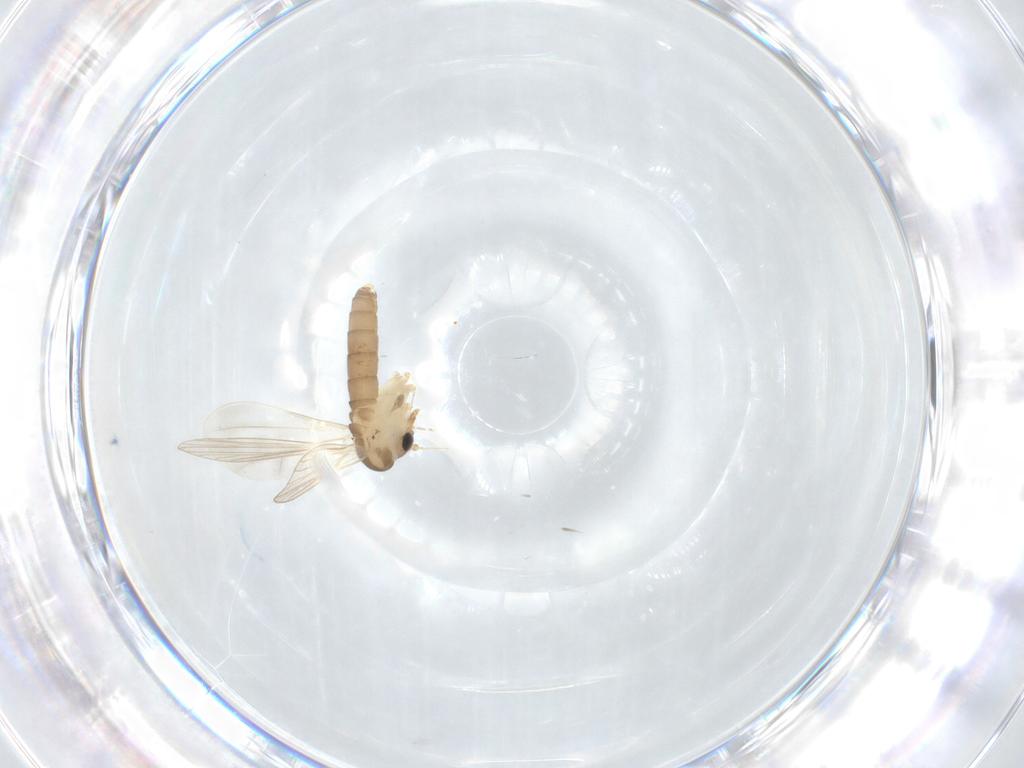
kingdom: Animalia
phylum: Arthropoda
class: Insecta
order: Diptera
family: Psychodidae
